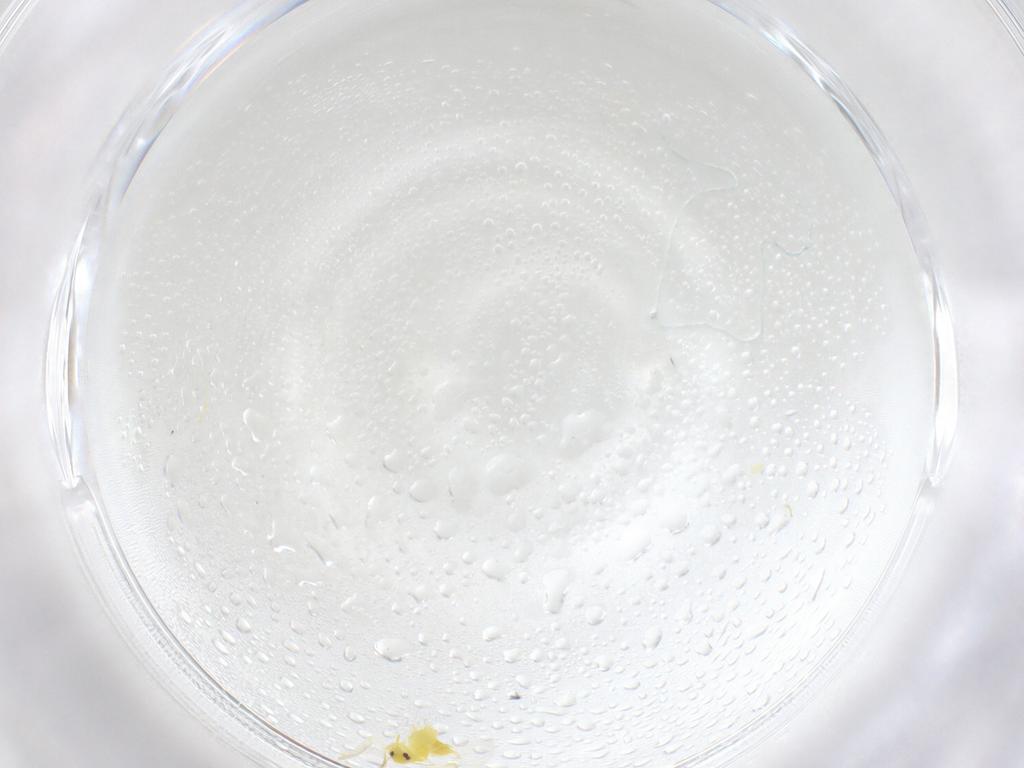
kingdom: Animalia
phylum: Arthropoda
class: Insecta
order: Hemiptera
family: Aleyrodidae
